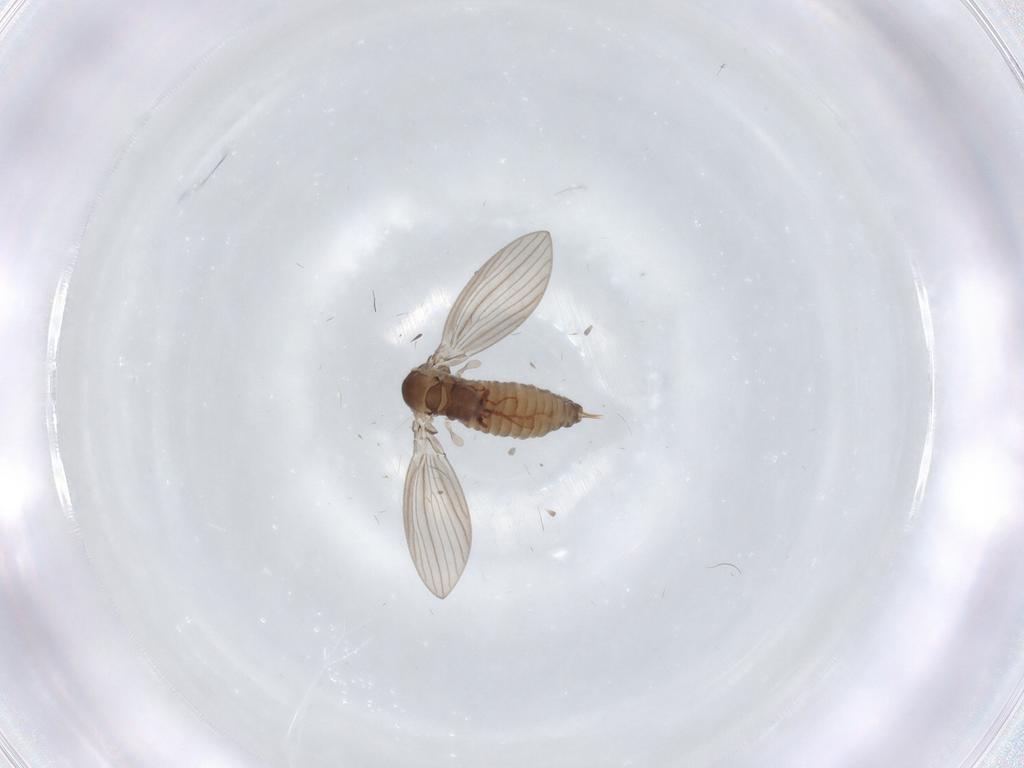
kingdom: Animalia
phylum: Arthropoda
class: Insecta
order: Diptera
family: Psychodidae
